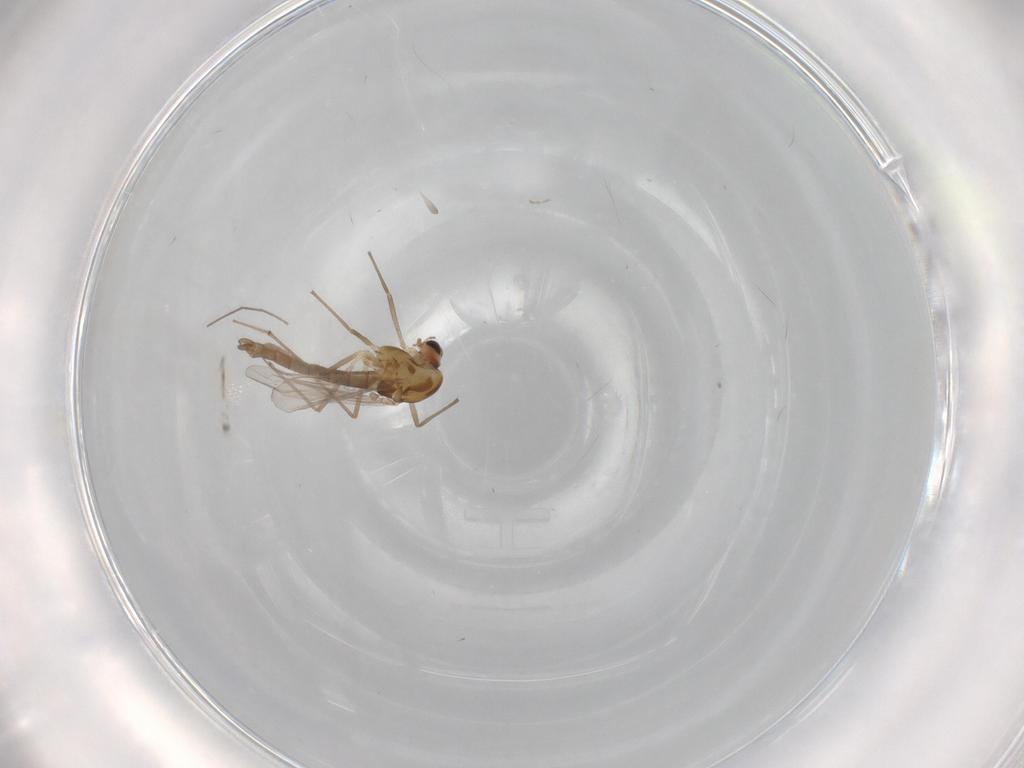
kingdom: Animalia
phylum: Arthropoda
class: Insecta
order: Diptera
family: Chironomidae
